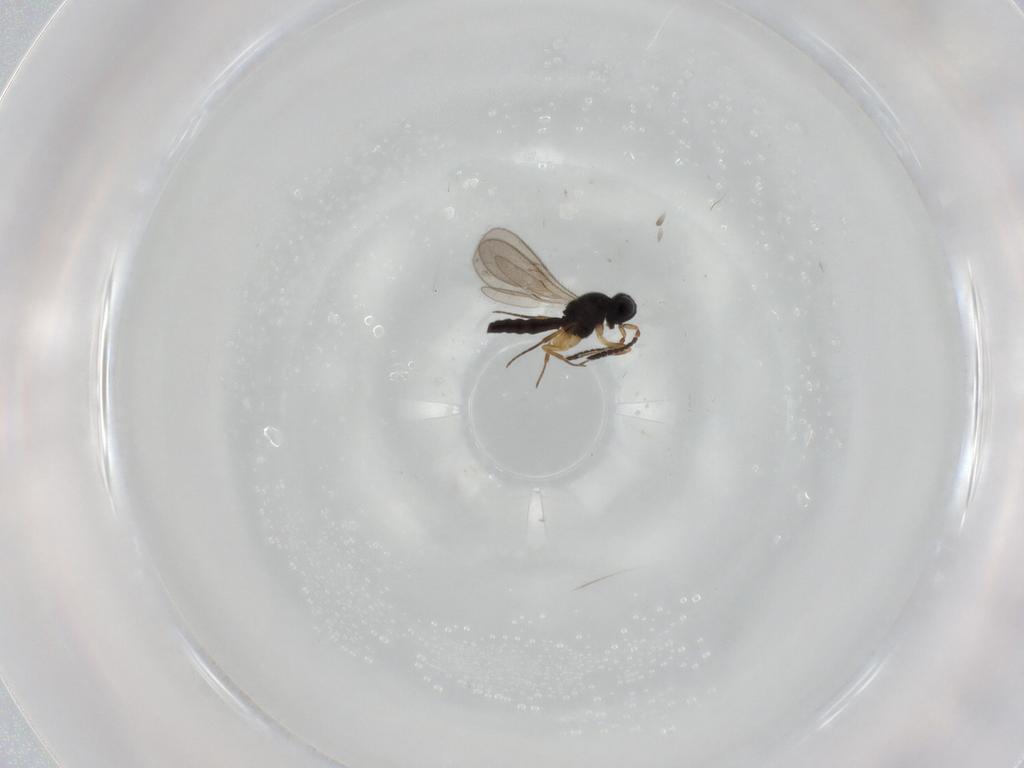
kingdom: Animalia
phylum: Arthropoda
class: Insecta
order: Hymenoptera
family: Scelionidae
